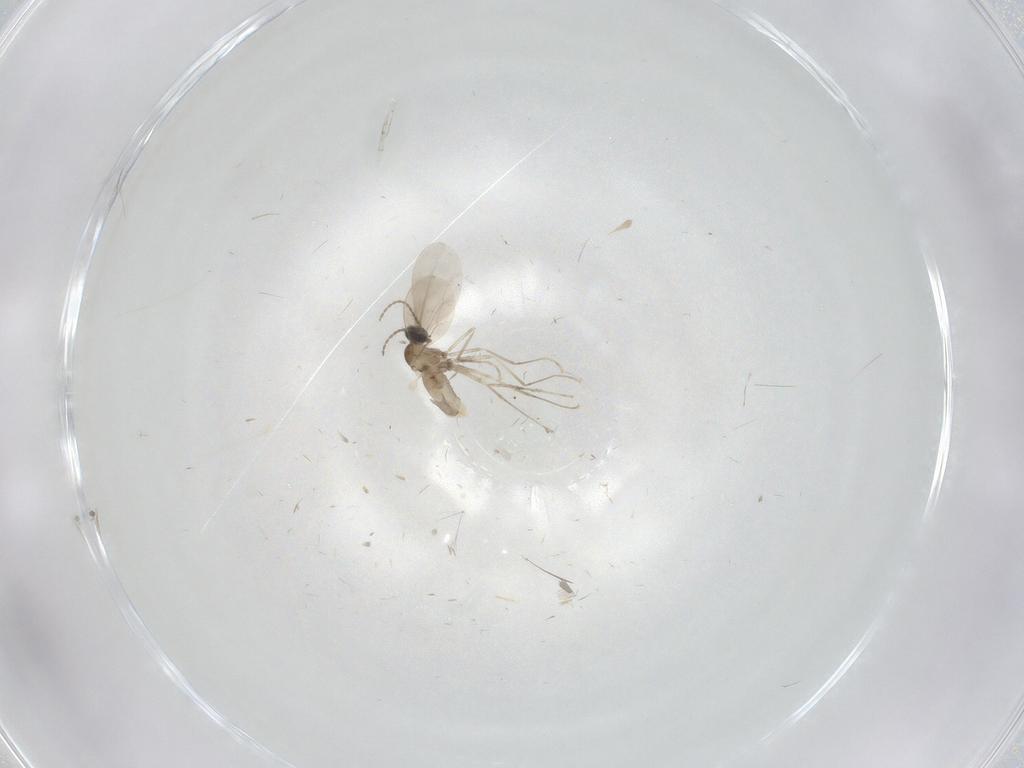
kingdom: Animalia
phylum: Arthropoda
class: Insecta
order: Diptera
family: Cecidomyiidae
